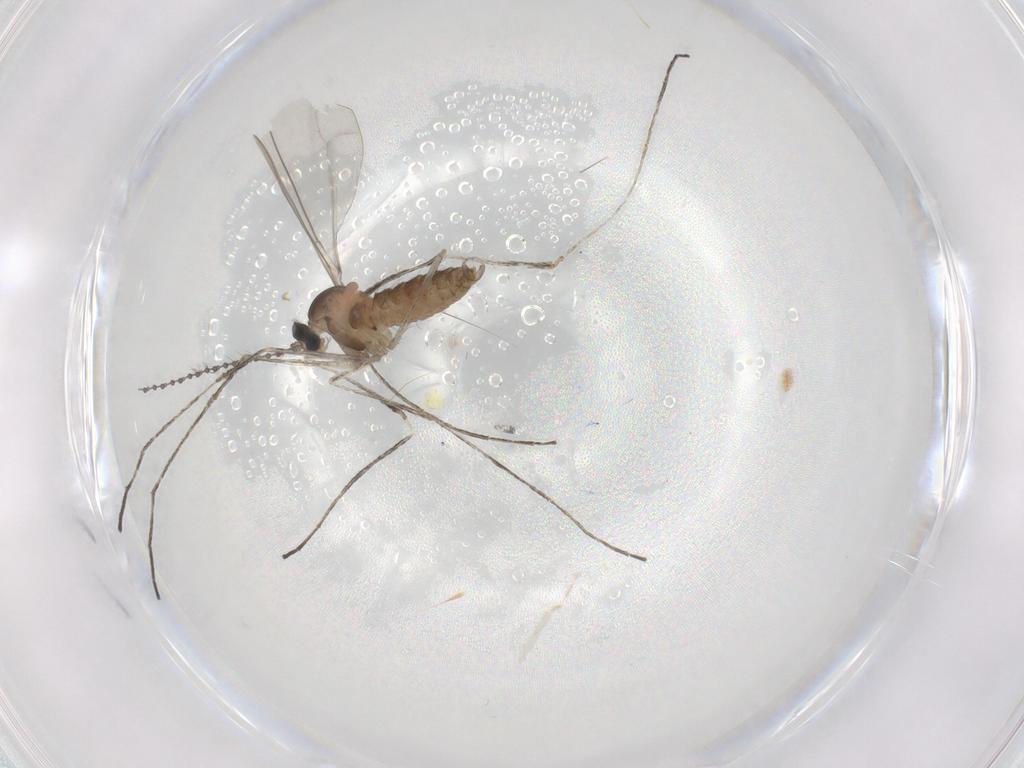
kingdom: Animalia
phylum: Arthropoda
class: Insecta
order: Diptera
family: Cecidomyiidae
